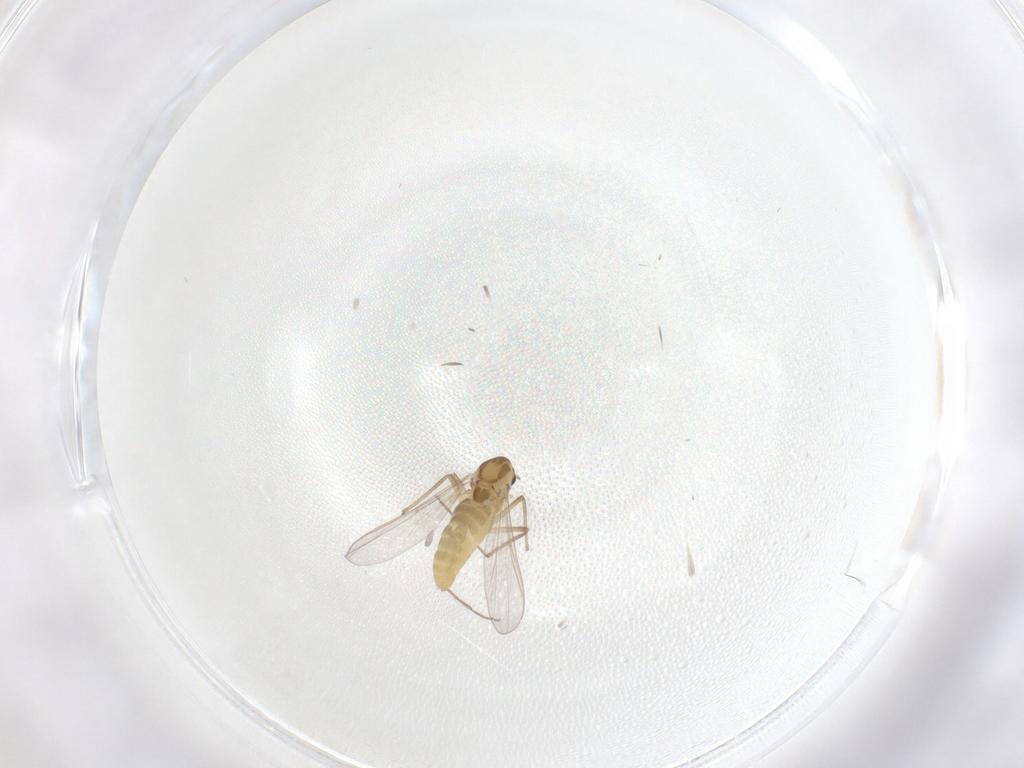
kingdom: Animalia
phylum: Arthropoda
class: Insecta
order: Diptera
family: Chironomidae
